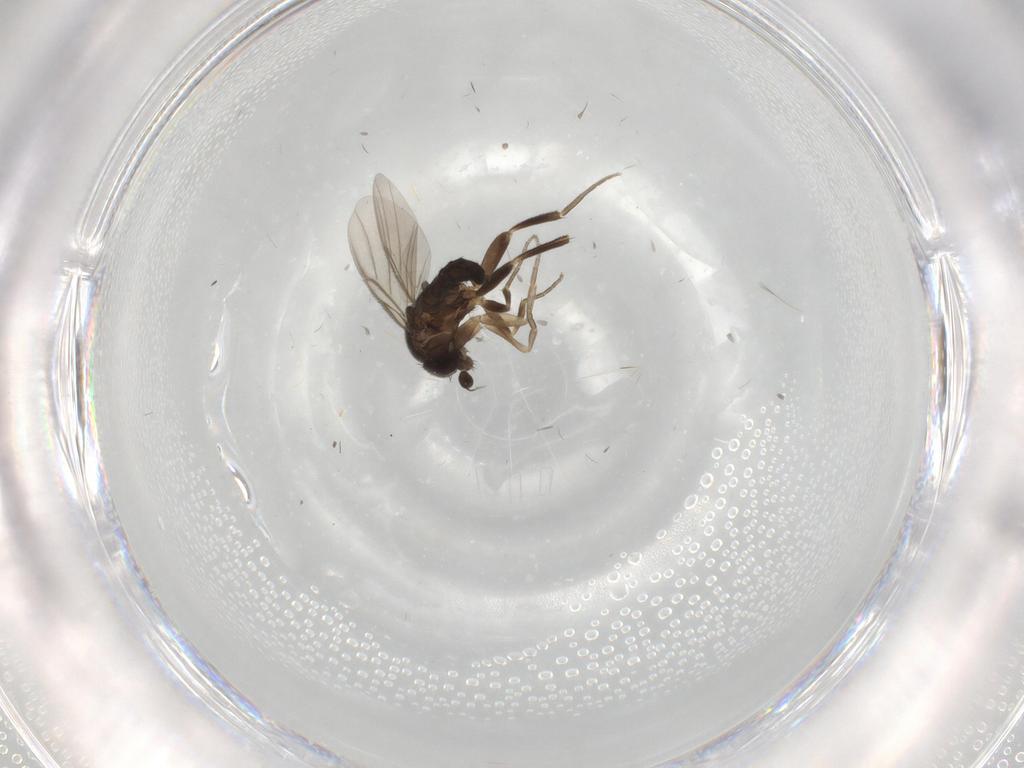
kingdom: Animalia
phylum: Arthropoda
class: Insecta
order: Diptera
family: Phoridae
